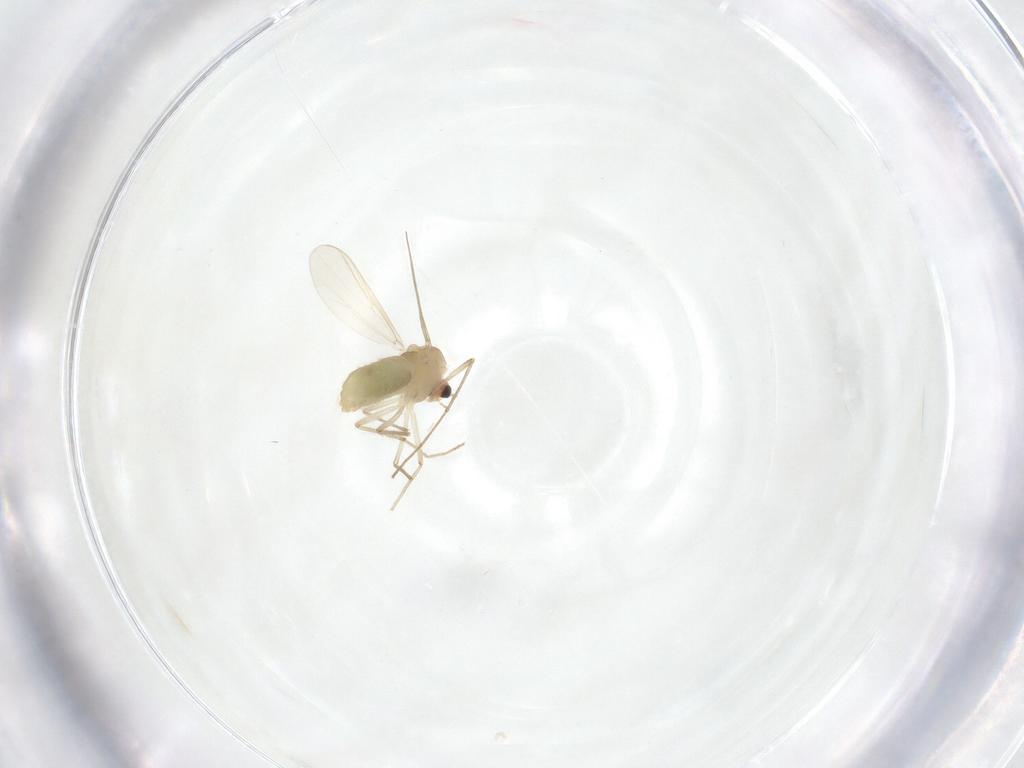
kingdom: Animalia
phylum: Arthropoda
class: Insecta
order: Diptera
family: Chironomidae
